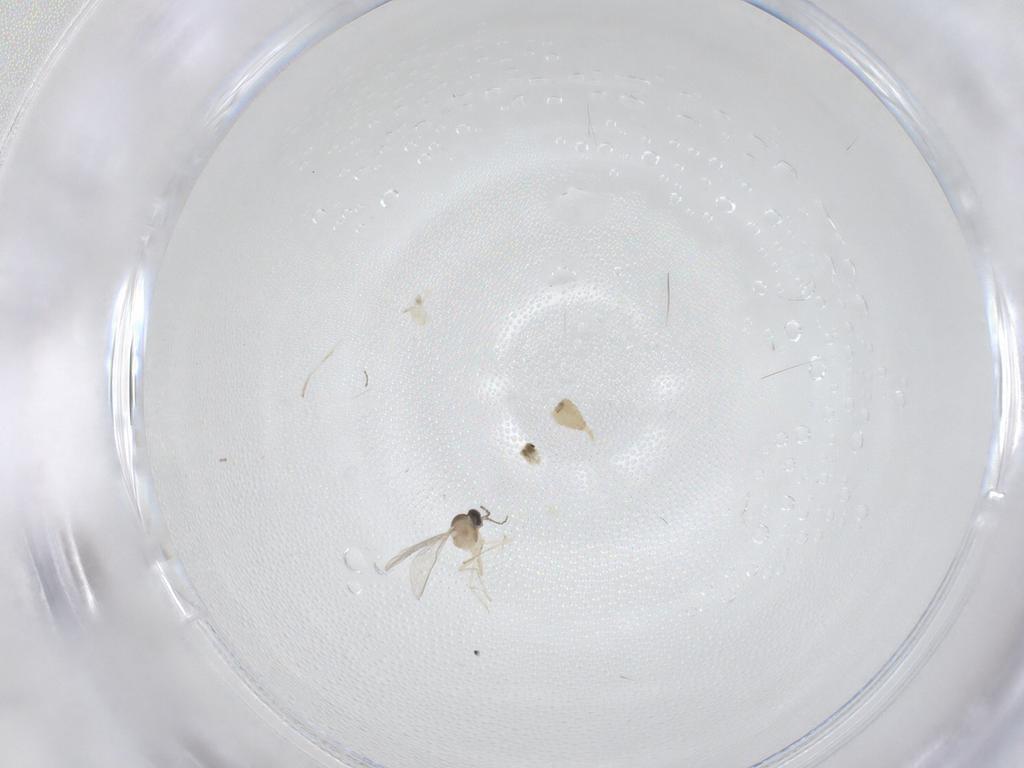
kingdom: Animalia
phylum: Arthropoda
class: Insecta
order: Diptera
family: Cecidomyiidae
